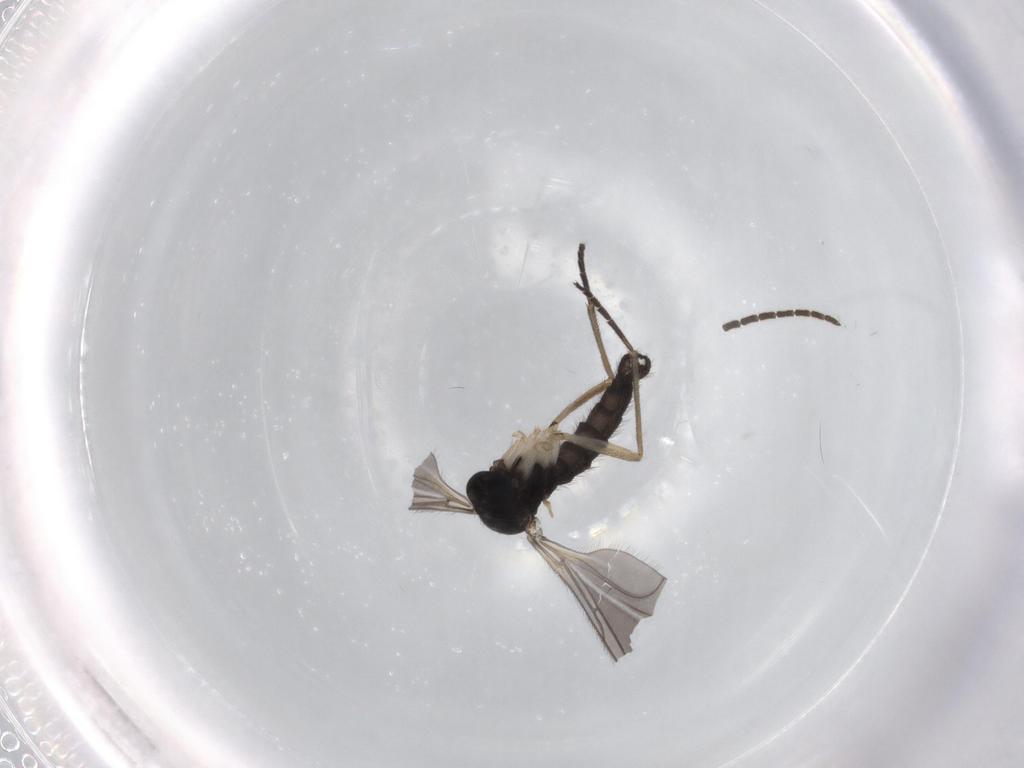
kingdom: Animalia
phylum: Arthropoda
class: Insecta
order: Diptera
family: Sciaridae
